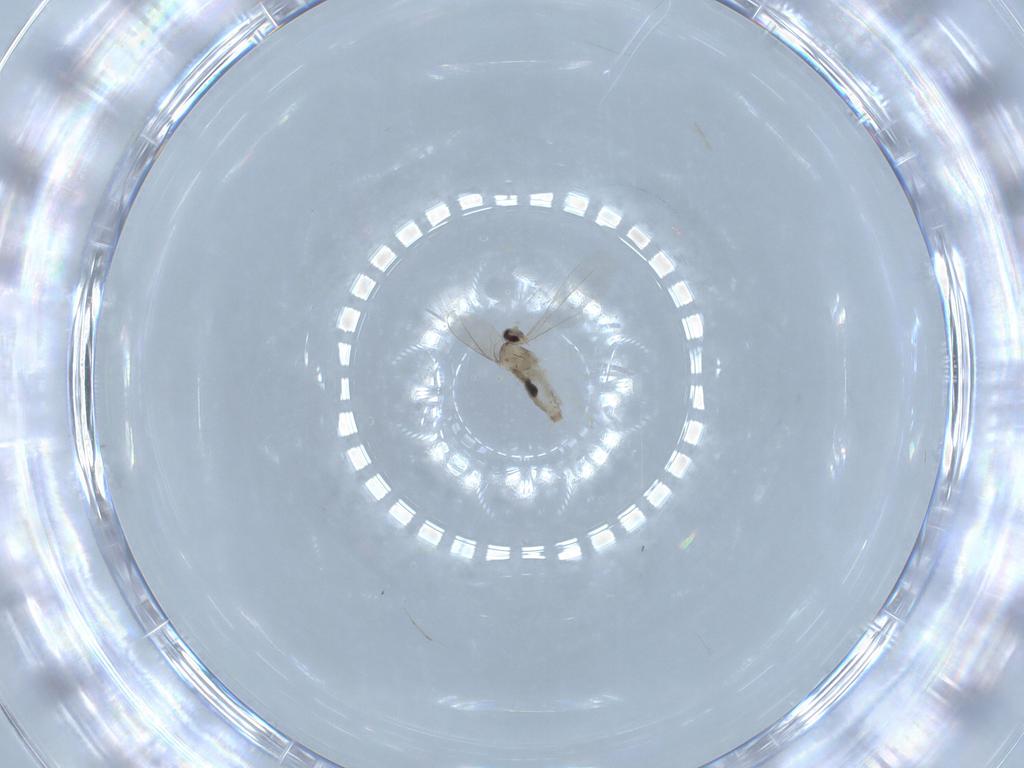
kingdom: Animalia
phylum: Arthropoda
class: Insecta
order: Diptera
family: Cecidomyiidae
